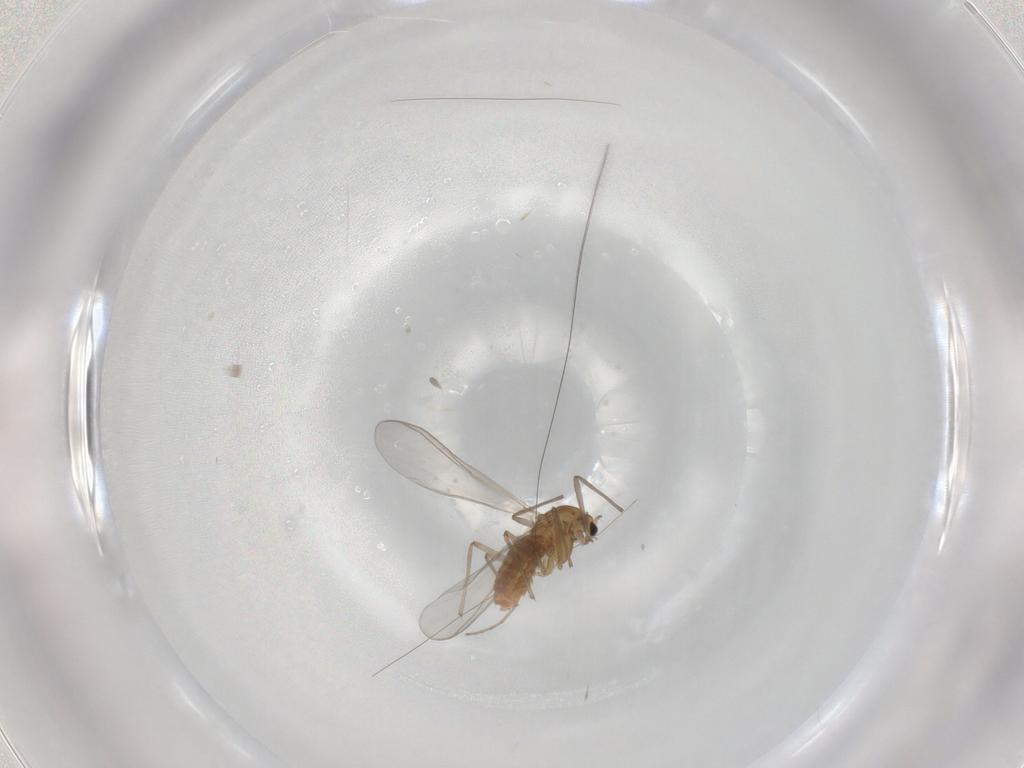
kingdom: Animalia
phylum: Arthropoda
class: Insecta
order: Diptera
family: Chironomidae
